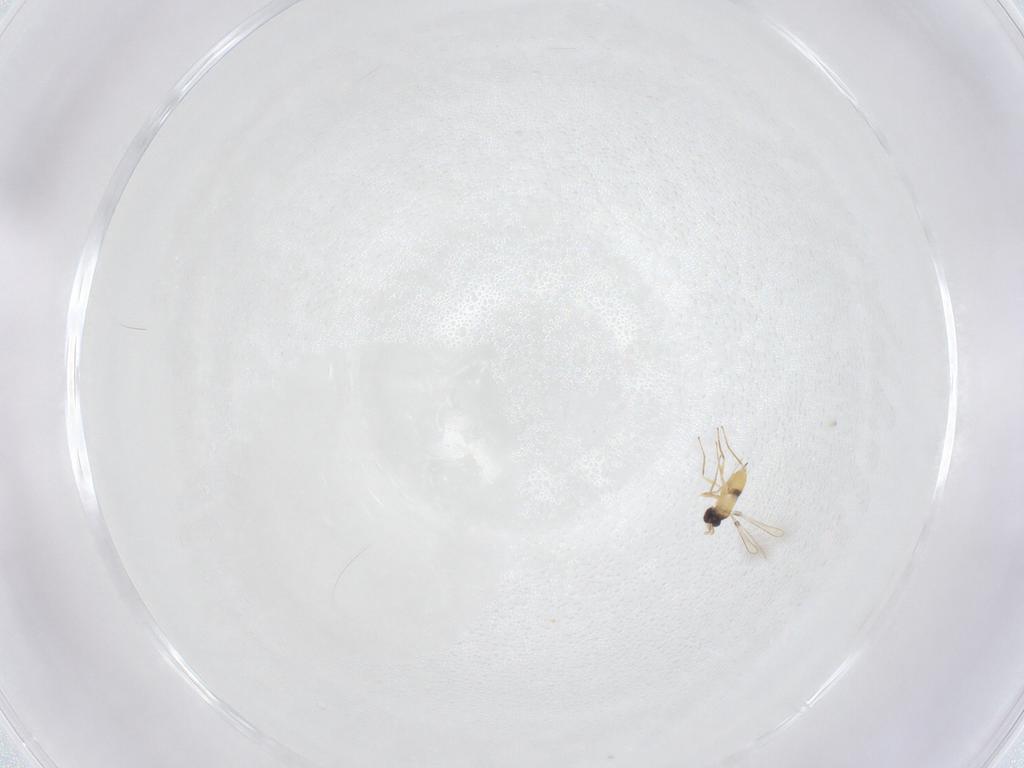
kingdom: Animalia
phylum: Arthropoda
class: Insecta
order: Hymenoptera
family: Mymaridae
